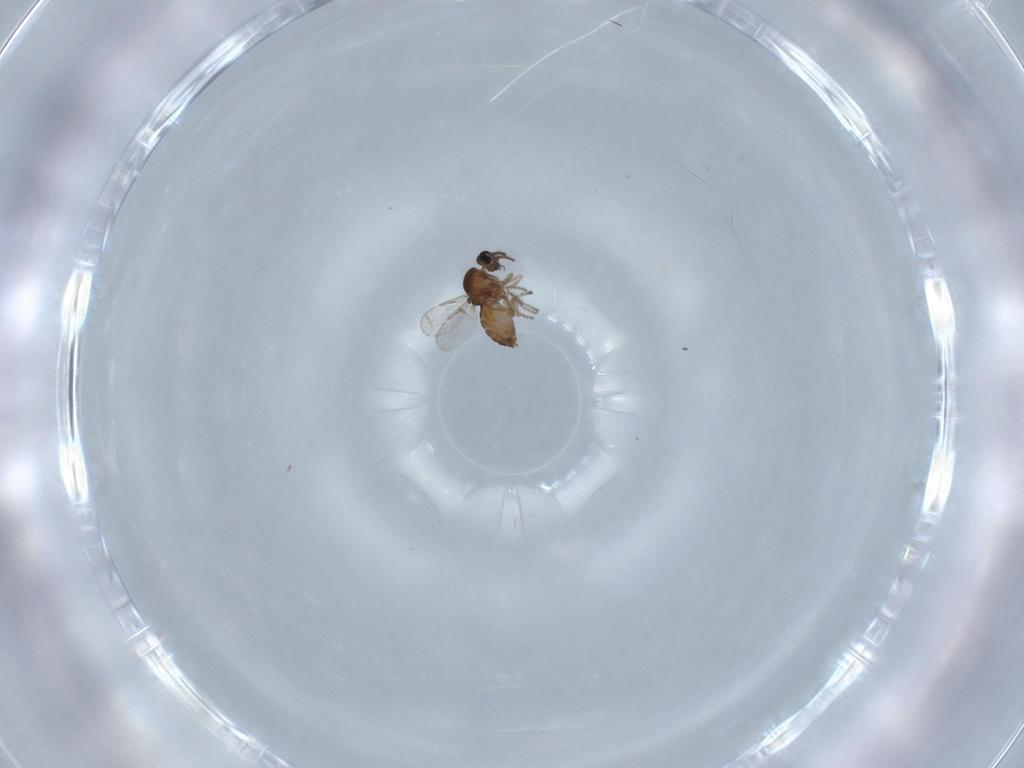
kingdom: Animalia
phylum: Arthropoda
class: Insecta
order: Diptera
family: Ceratopogonidae
